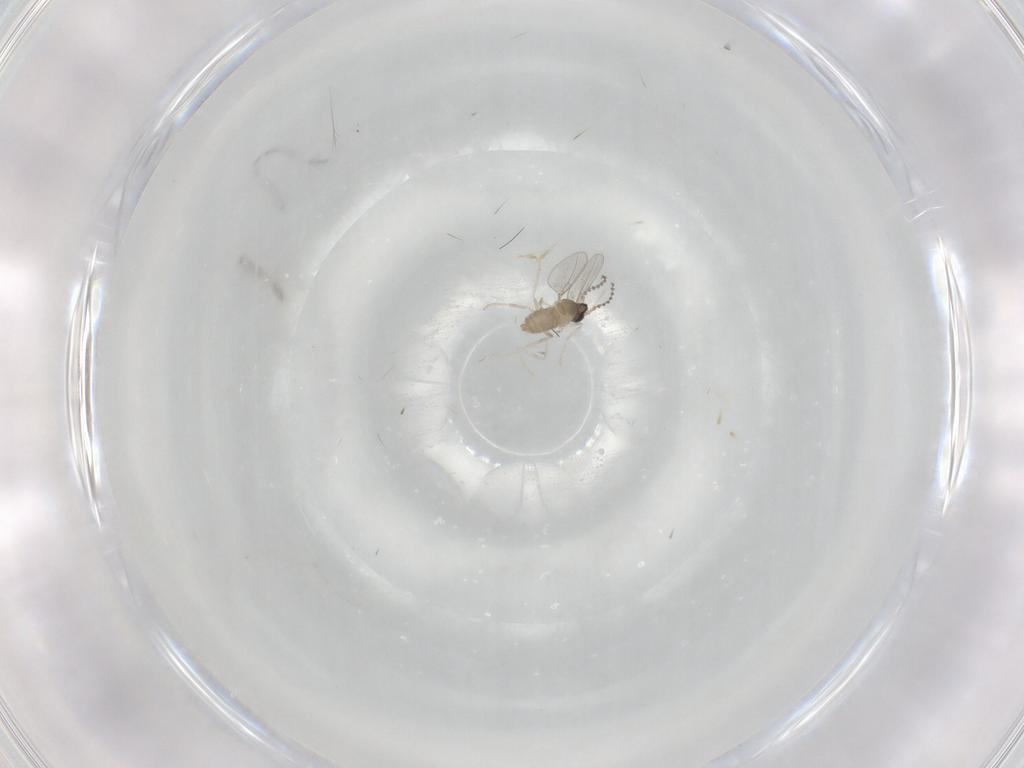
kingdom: Animalia
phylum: Arthropoda
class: Insecta
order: Diptera
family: Cecidomyiidae
